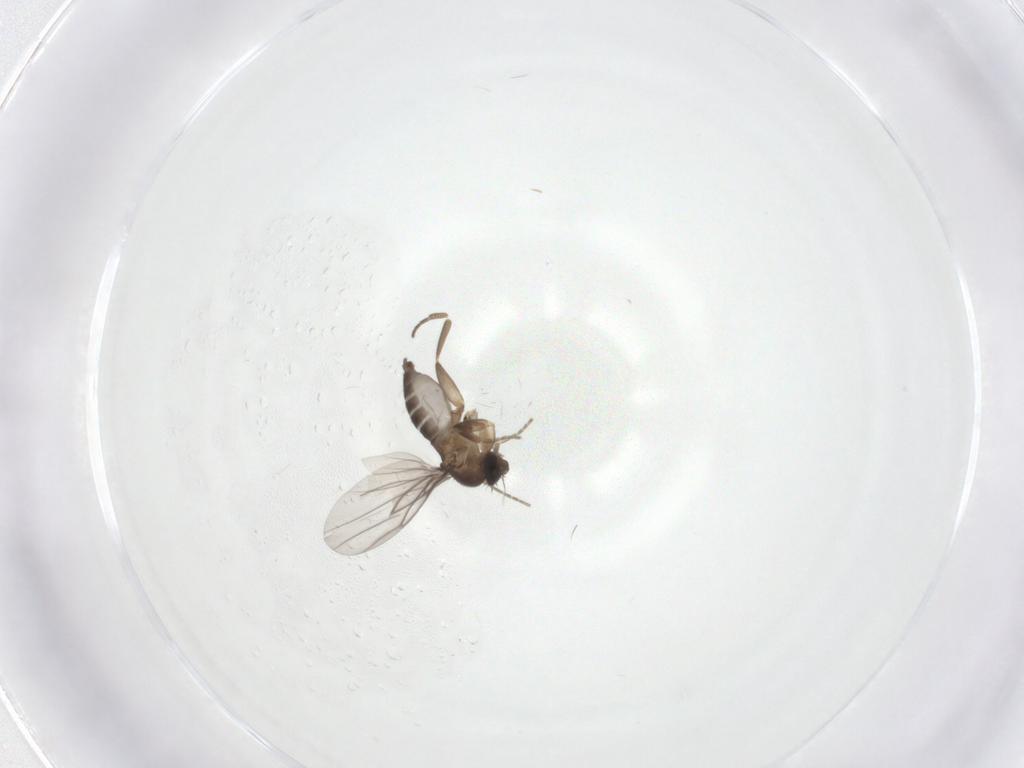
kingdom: Animalia
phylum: Arthropoda
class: Insecta
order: Diptera
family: Phoridae
